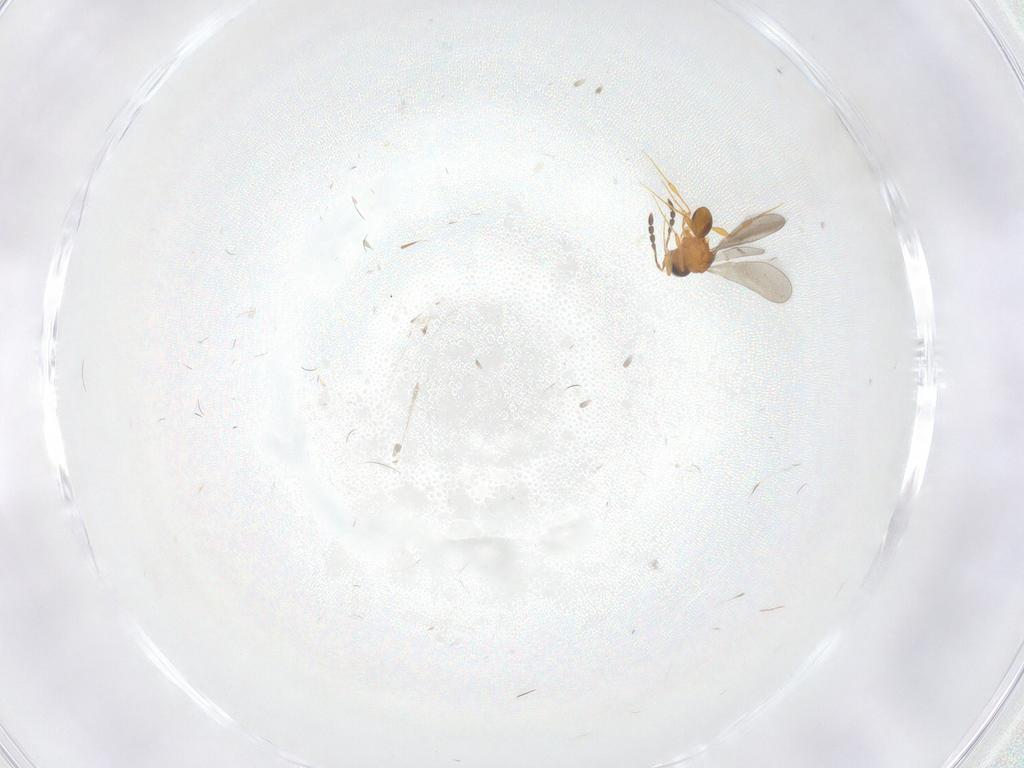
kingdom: Animalia
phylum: Arthropoda
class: Insecta
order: Hymenoptera
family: Platygastridae
